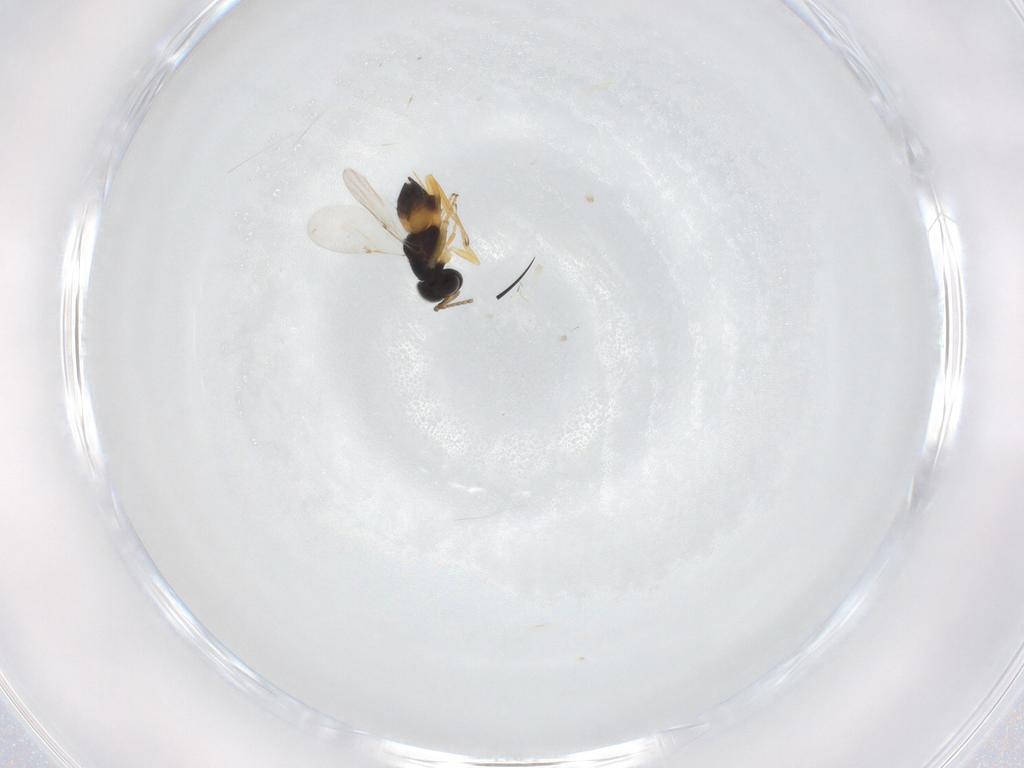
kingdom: Animalia
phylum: Arthropoda
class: Insecta
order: Hymenoptera
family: Encyrtidae
